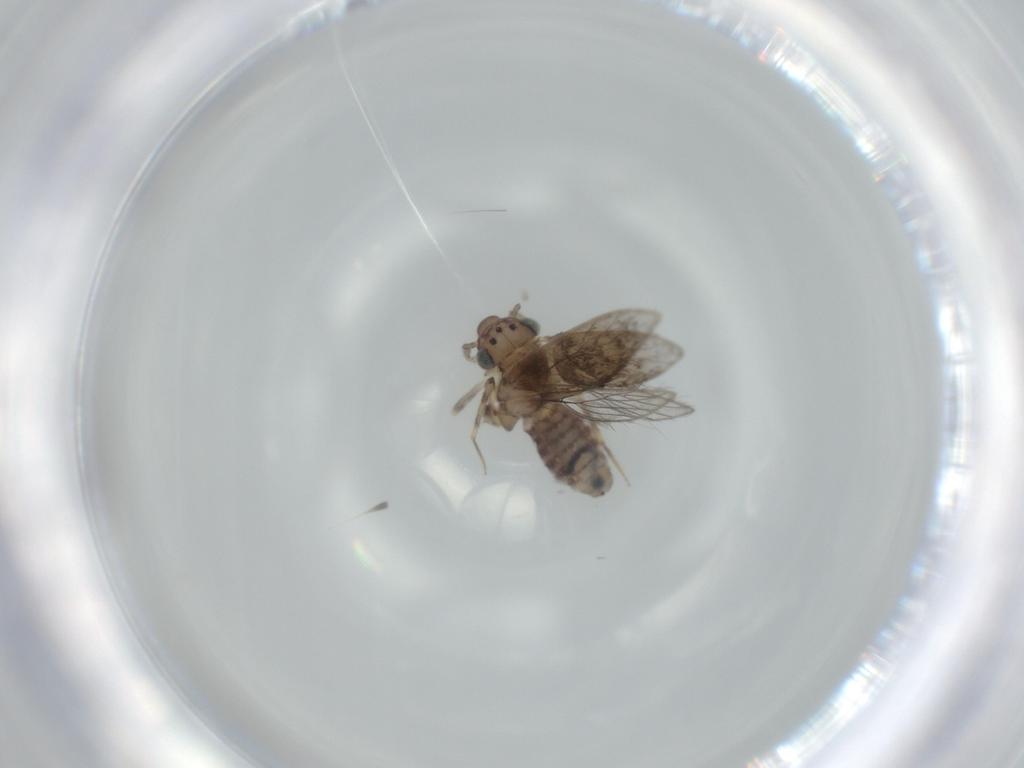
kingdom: Animalia
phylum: Arthropoda
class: Insecta
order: Psocodea
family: Lepidopsocidae
